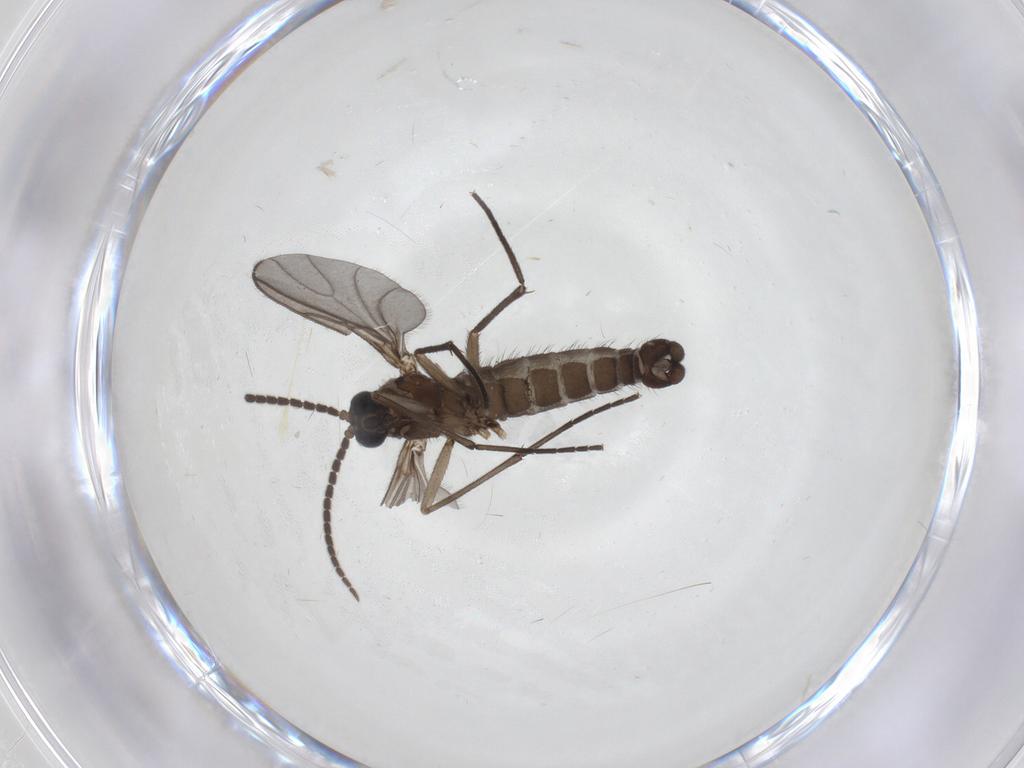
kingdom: Animalia
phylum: Arthropoda
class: Insecta
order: Diptera
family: Sciaridae
